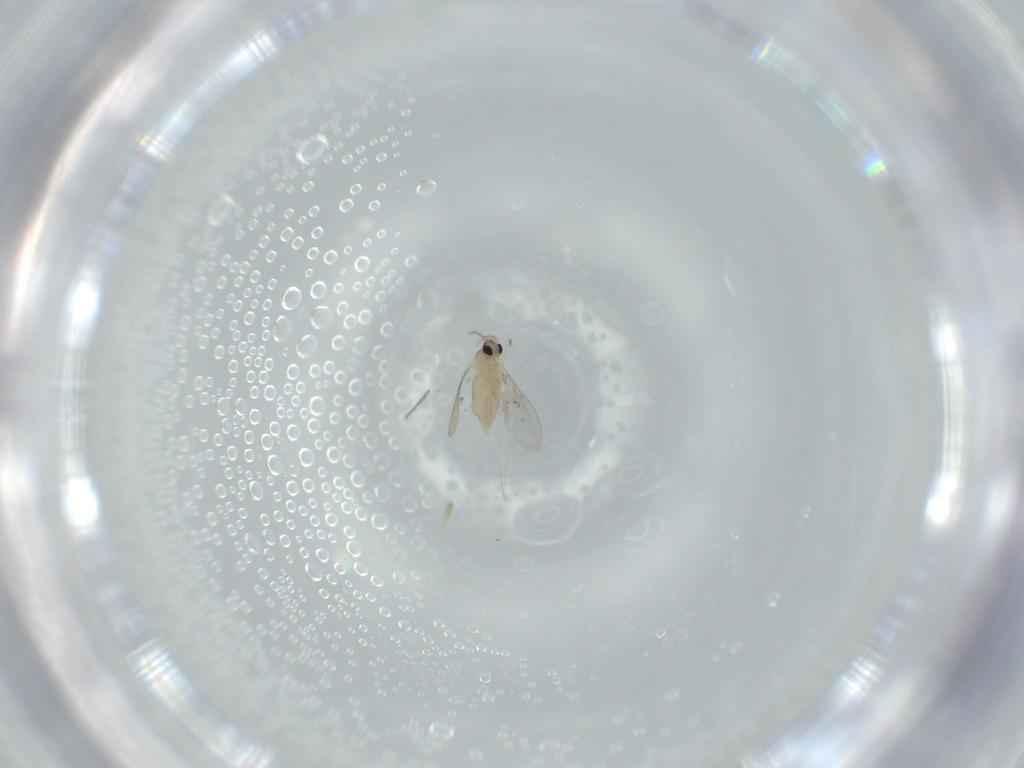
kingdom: Animalia
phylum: Arthropoda
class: Insecta
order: Diptera
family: Cecidomyiidae
